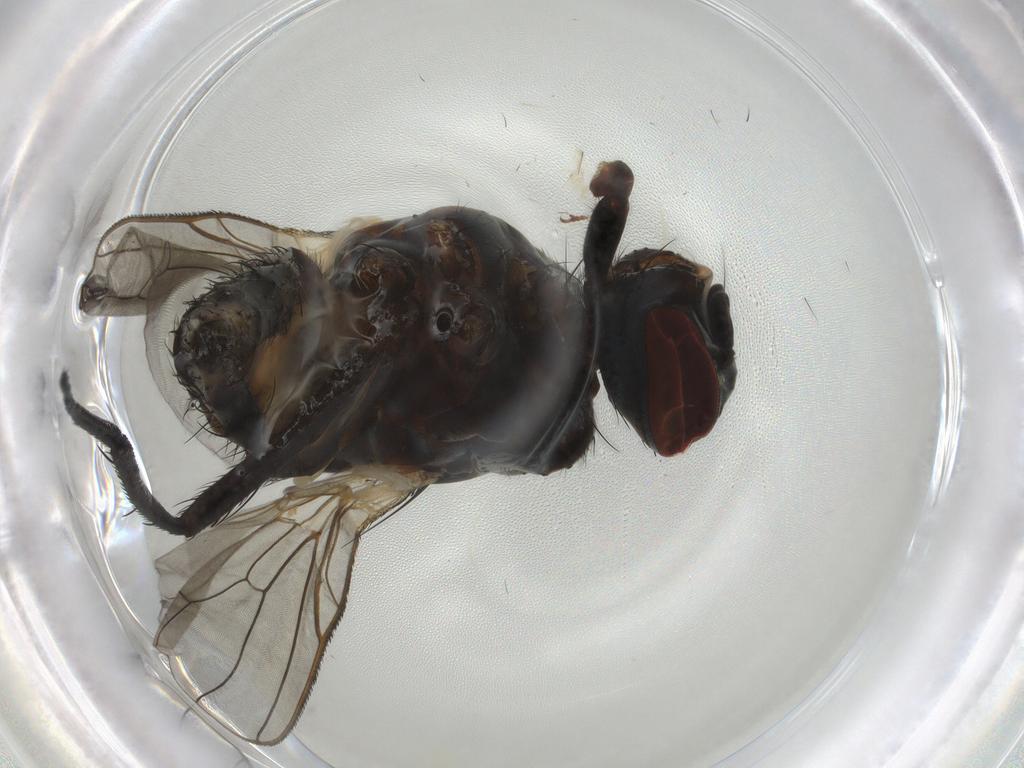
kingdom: Animalia
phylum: Arthropoda
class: Insecta
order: Diptera
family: Anthomyiidae
